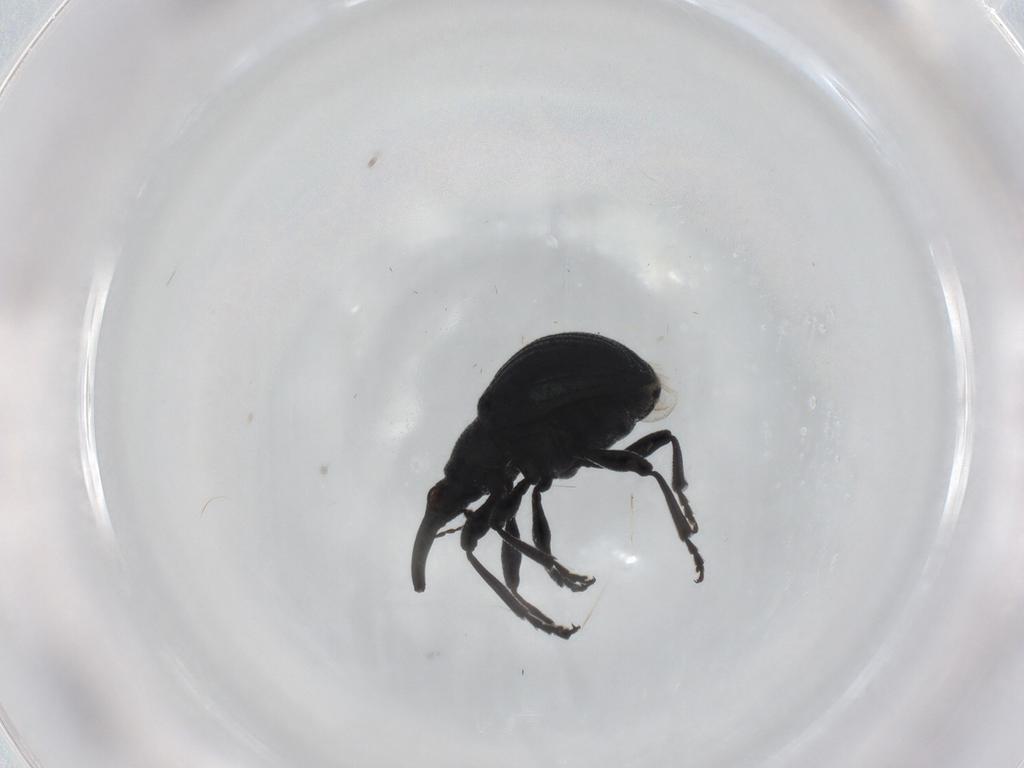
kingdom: Animalia
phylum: Arthropoda
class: Insecta
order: Coleoptera
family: Brentidae
